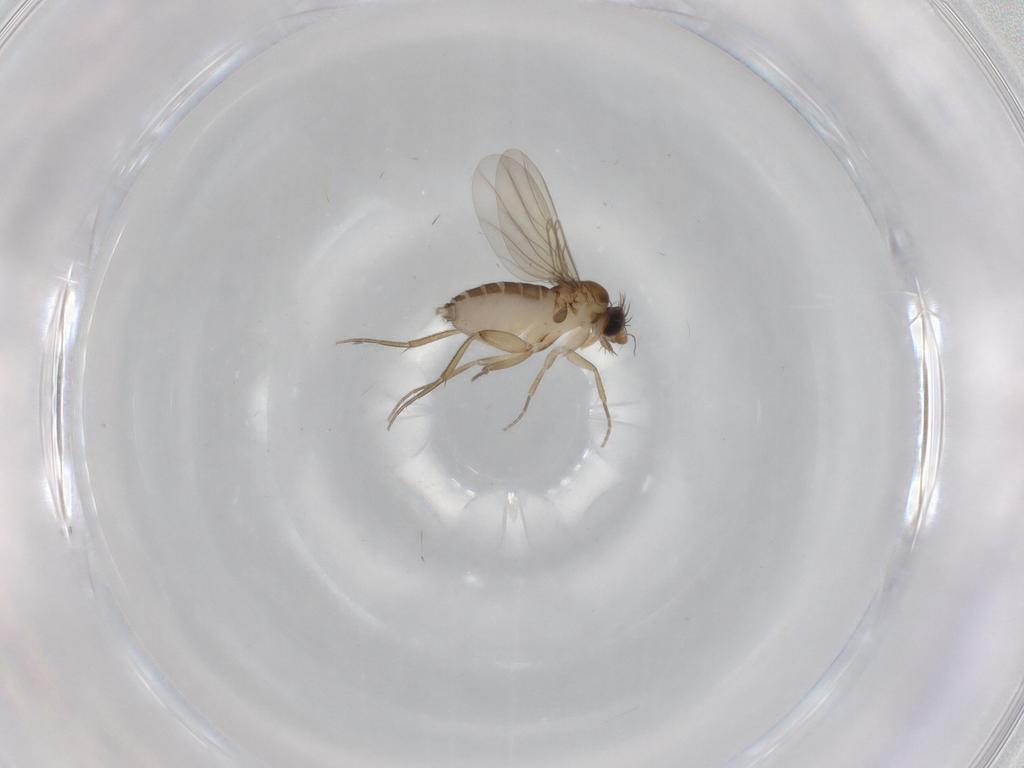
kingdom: Animalia
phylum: Arthropoda
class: Insecta
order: Diptera
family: Phoridae
